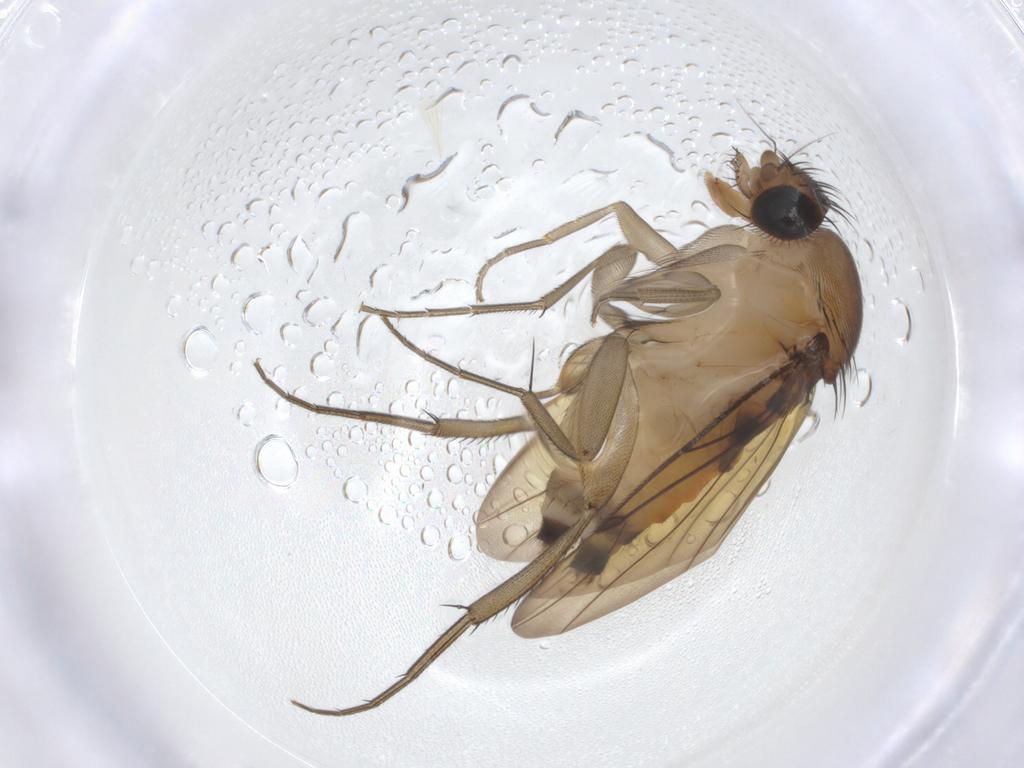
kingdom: Animalia
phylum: Arthropoda
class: Insecta
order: Diptera
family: Phoridae
